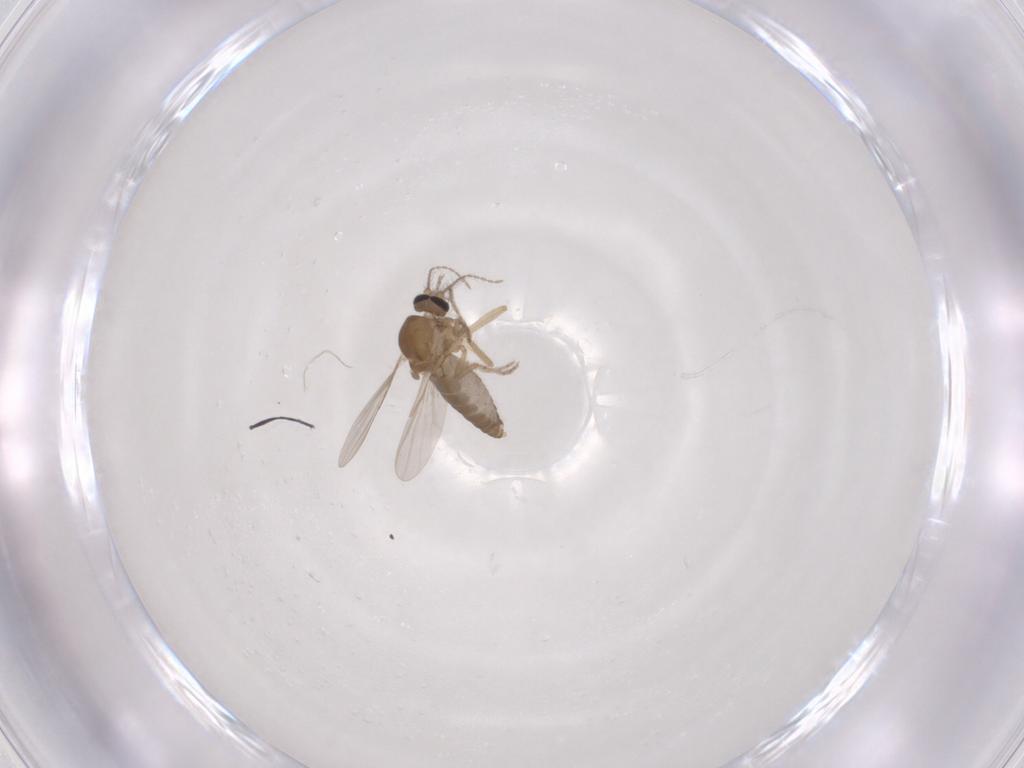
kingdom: Animalia
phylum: Arthropoda
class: Insecta
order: Diptera
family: Ceratopogonidae
